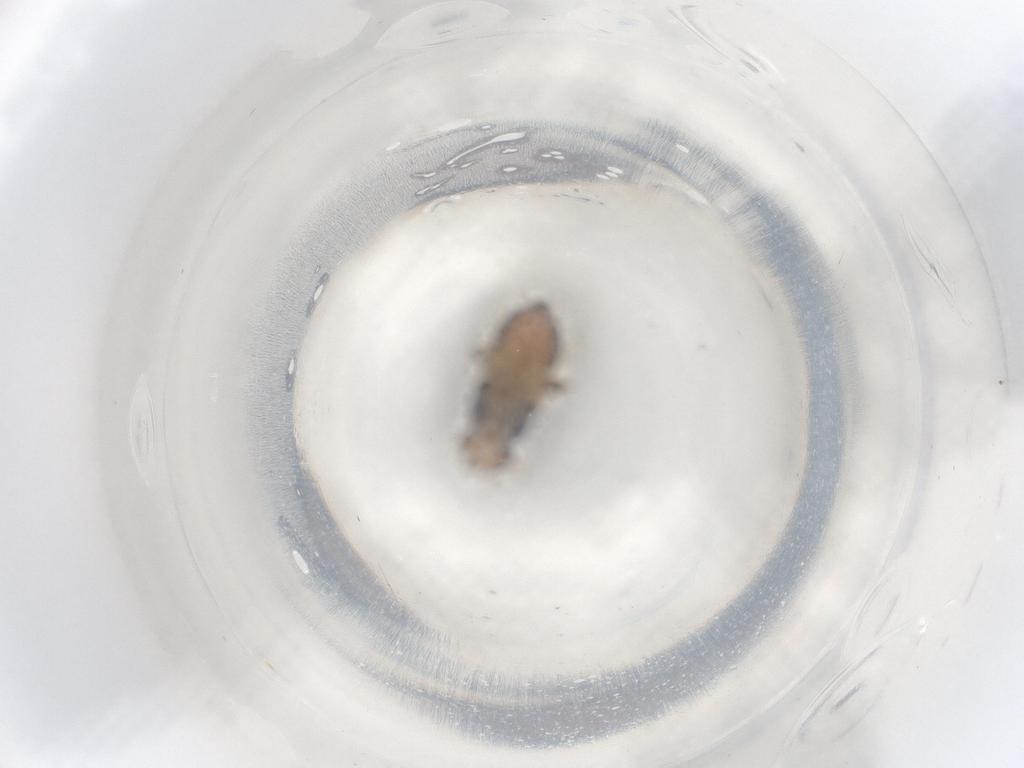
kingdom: Animalia
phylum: Arthropoda
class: Insecta
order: Diptera
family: Chloropidae
